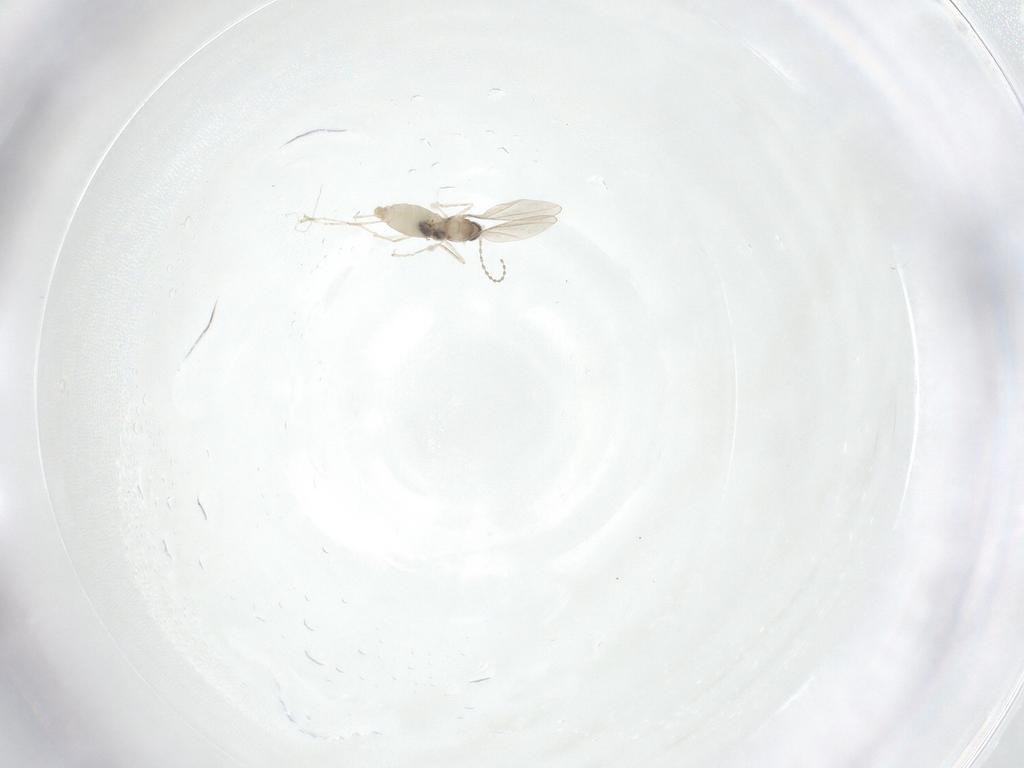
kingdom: Animalia
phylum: Arthropoda
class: Insecta
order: Diptera
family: Cecidomyiidae
